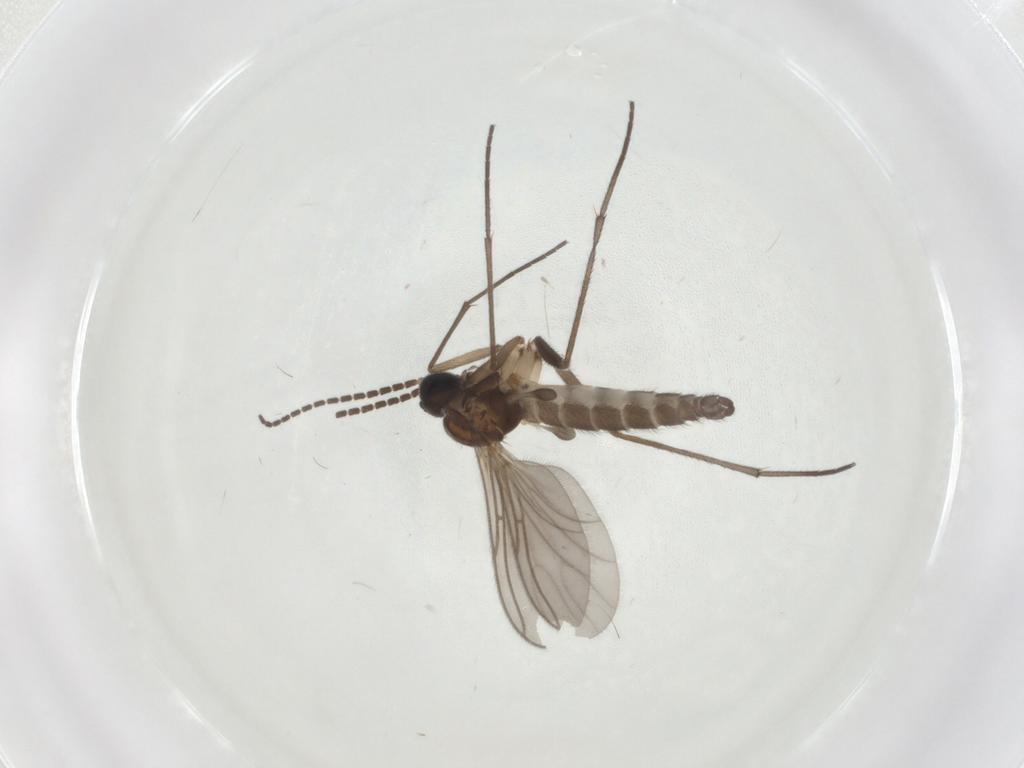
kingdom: Animalia
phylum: Arthropoda
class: Insecta
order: Diptera
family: Sciaridae
